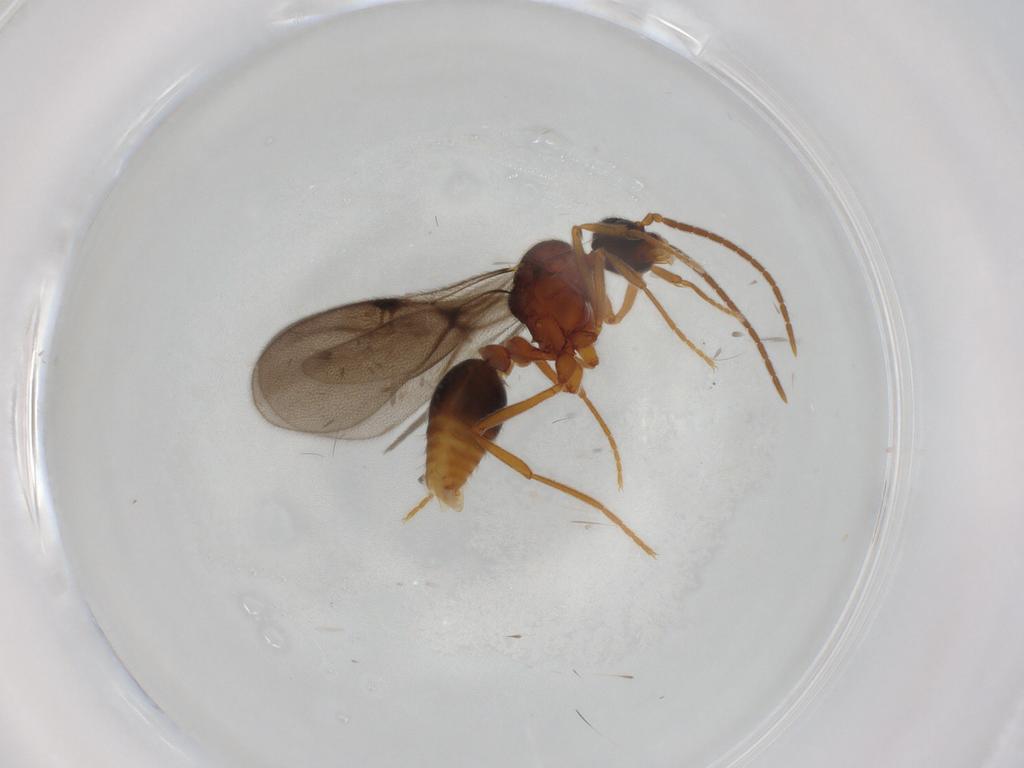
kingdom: Animalia
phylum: Arthropoda
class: Insecta
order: Hymenoptera
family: Formicidae
